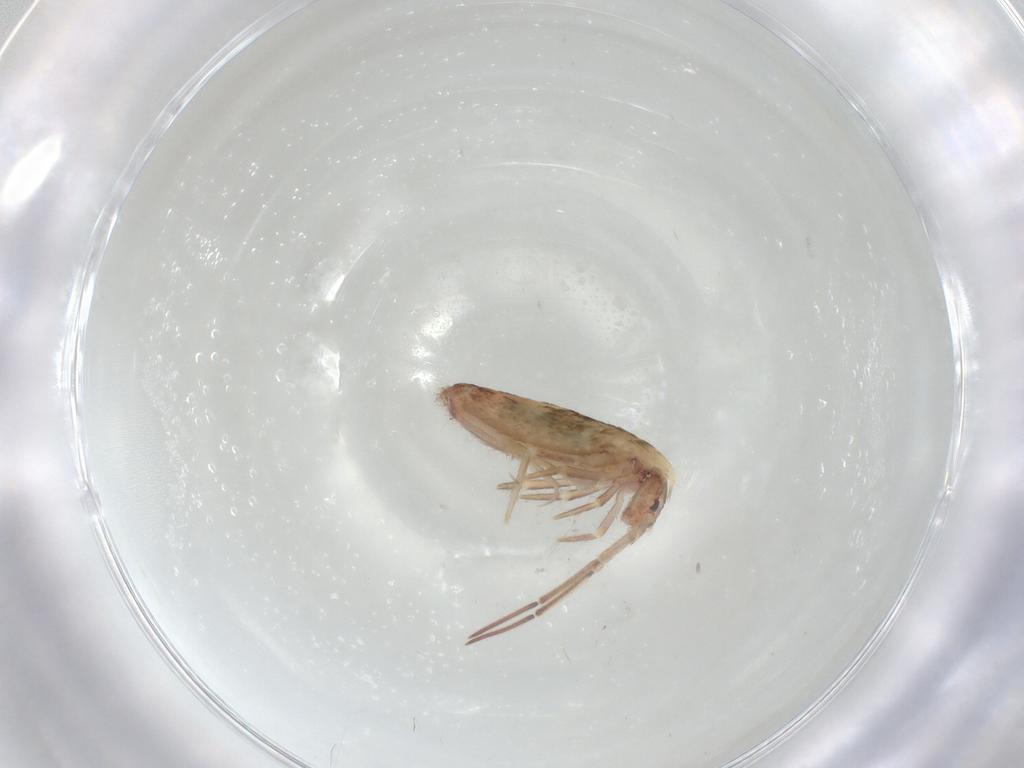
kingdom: Animalia
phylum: Arthropoda
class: Collembola
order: Entomobryomorpha
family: Entomobryidae
